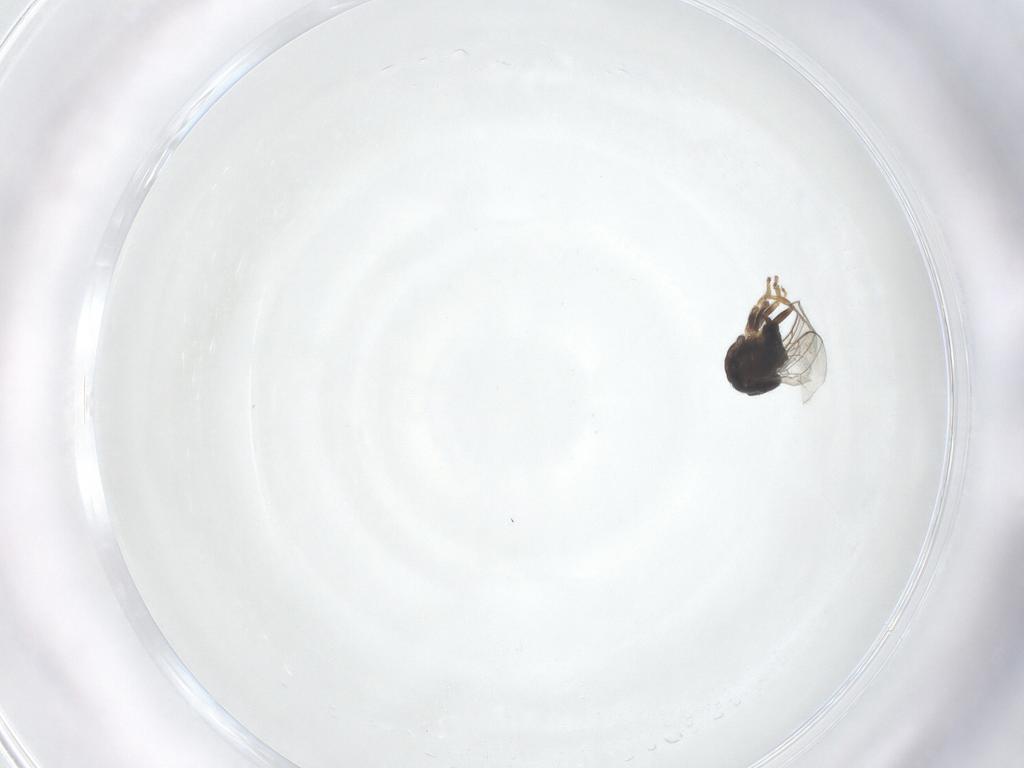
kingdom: Animalia
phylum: Arthropoda
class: Insecta
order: Diptera
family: Chloropidae
